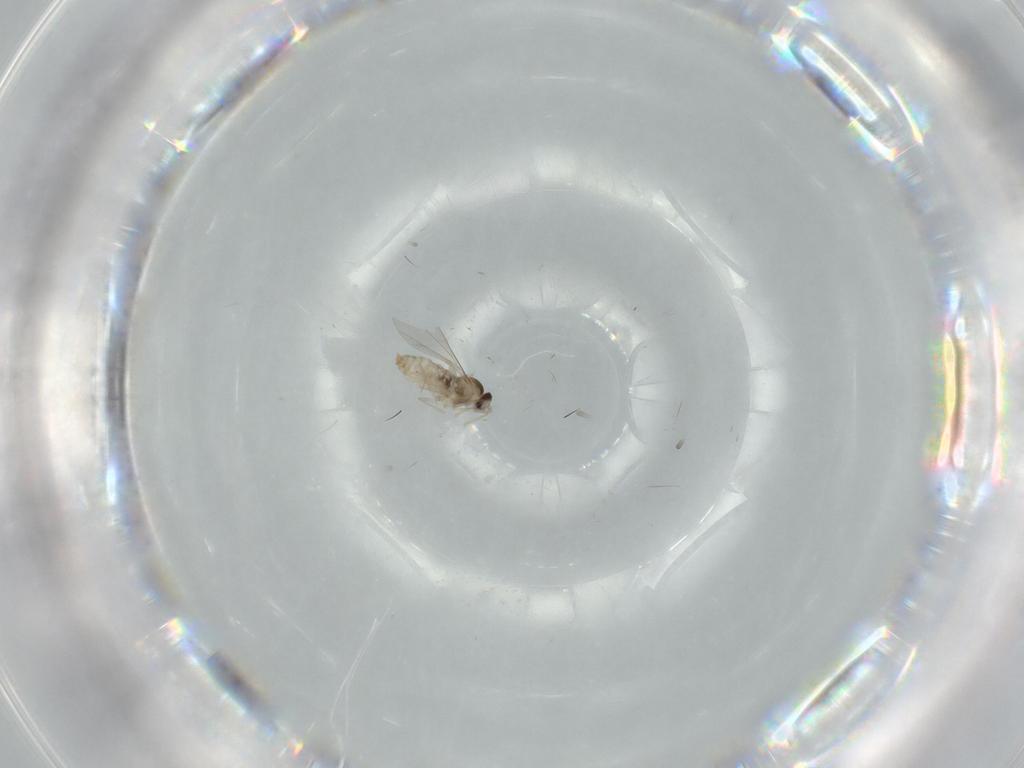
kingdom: Animalia
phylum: Arthropoda
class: Insecta
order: Diptera
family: Cecidomyiidae
